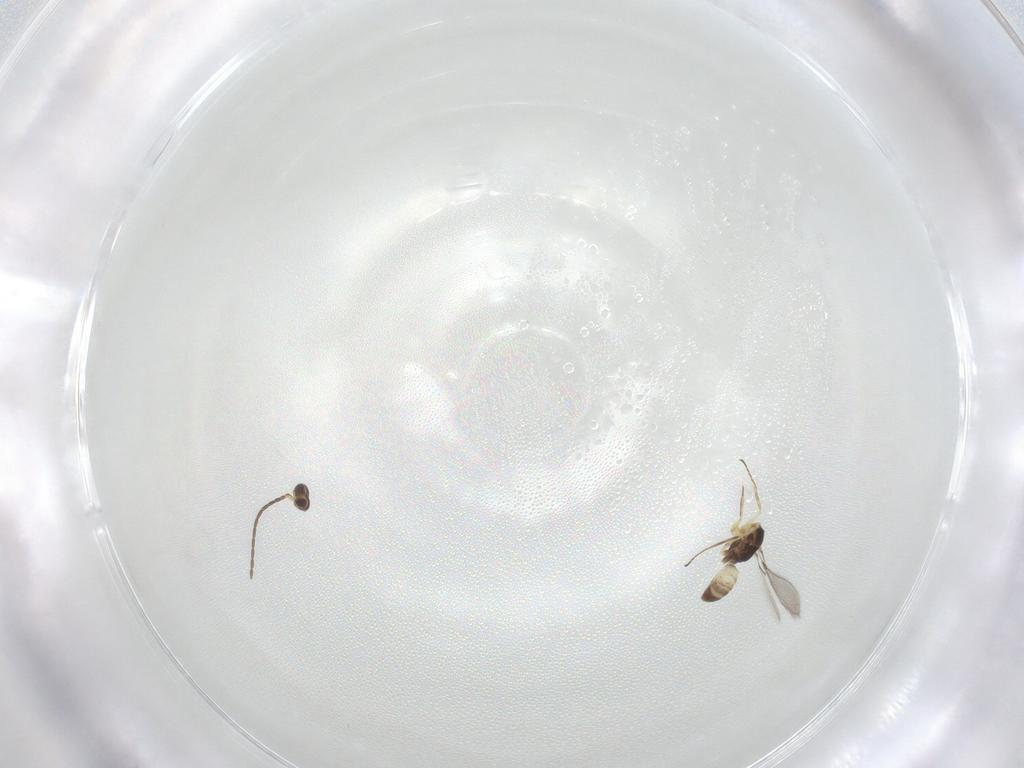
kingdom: Animalia
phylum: Arthropoda
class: Insecta
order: Hymenoptera
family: Mymaridae
